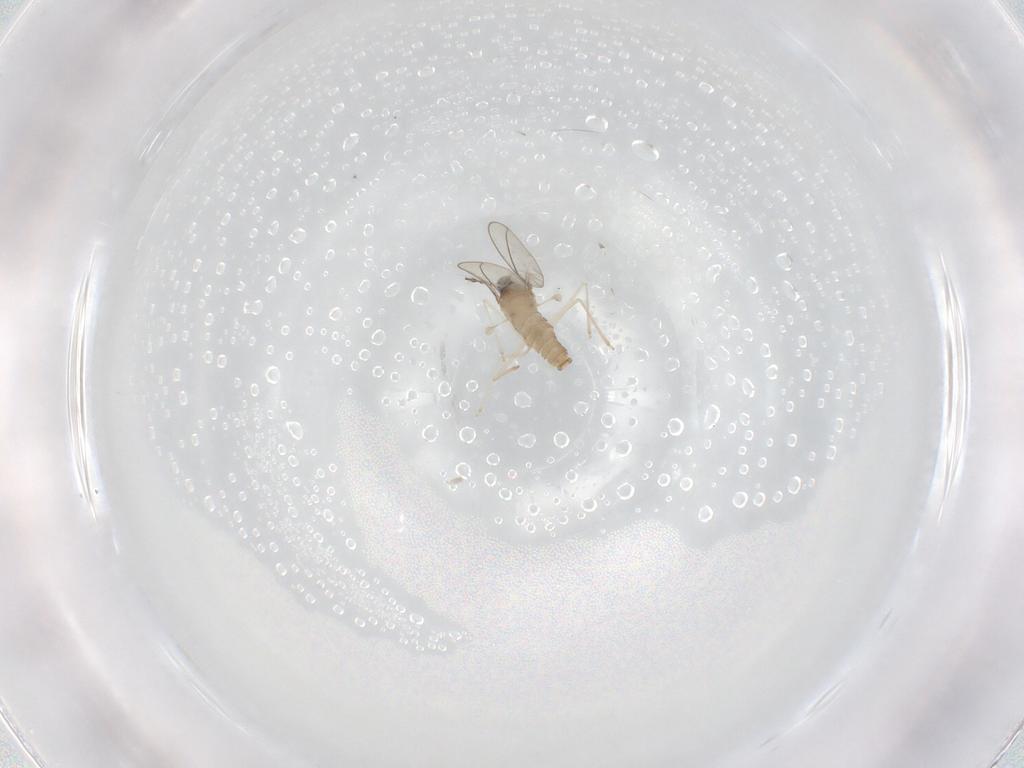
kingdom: Animalia
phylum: Arthropoda
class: Insecta
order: Diptera
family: Cecidomyiidae
